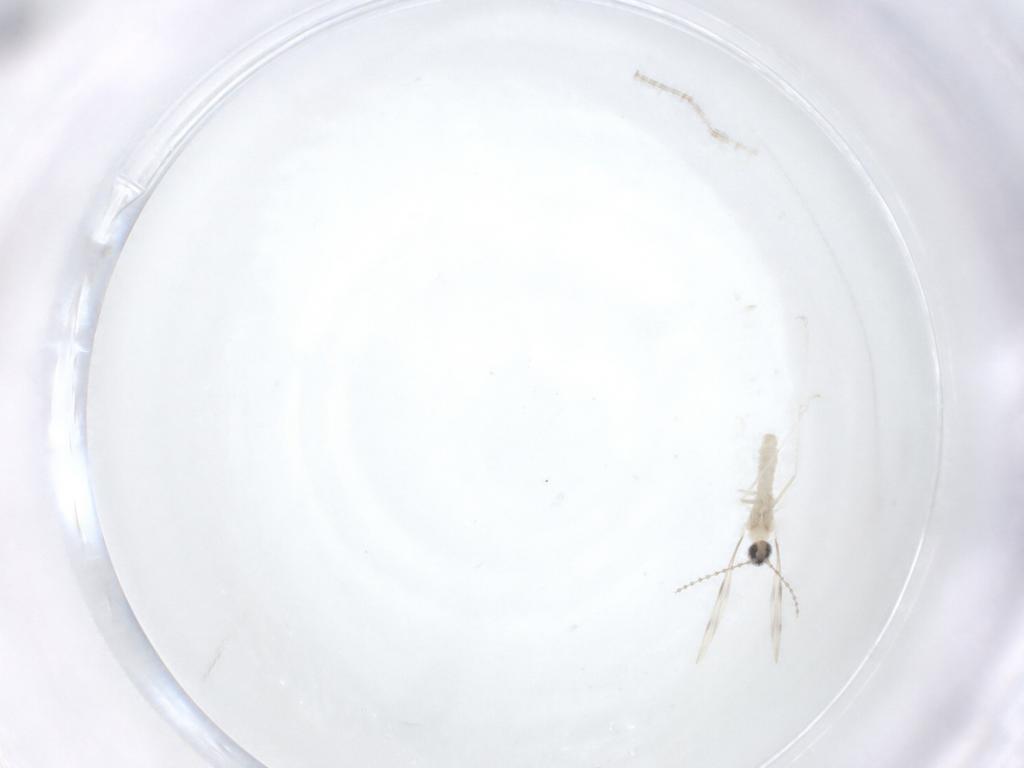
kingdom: Animalia
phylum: Arthropoda
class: Insecta
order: Diptera
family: Cecidomyiidae
